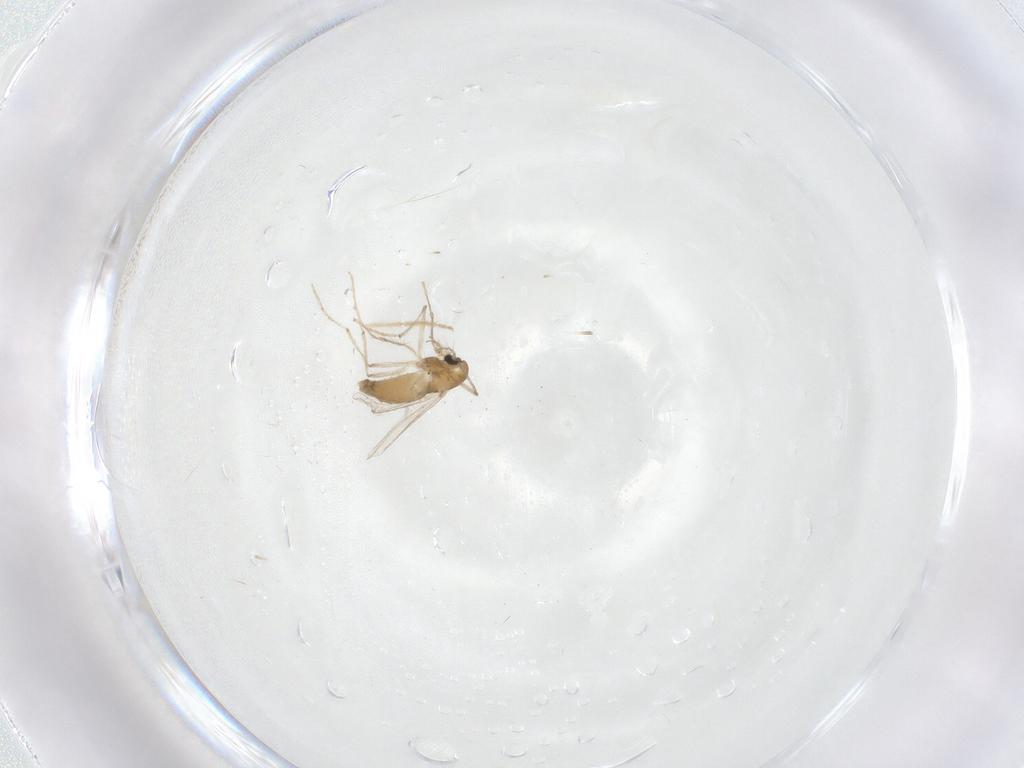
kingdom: Animalia
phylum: Arthropoda
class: Insecta
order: Diptera
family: Chironomidae
